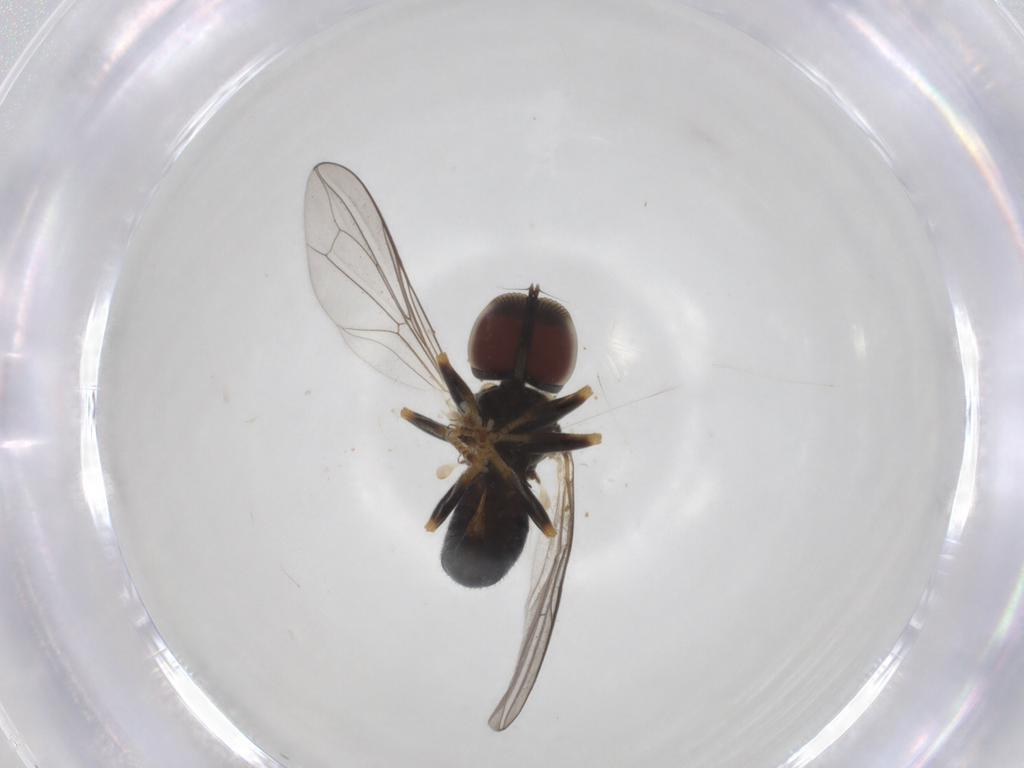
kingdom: Animalia
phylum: Arthropoda
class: Insecta
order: Diptera
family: Pipunculidae
